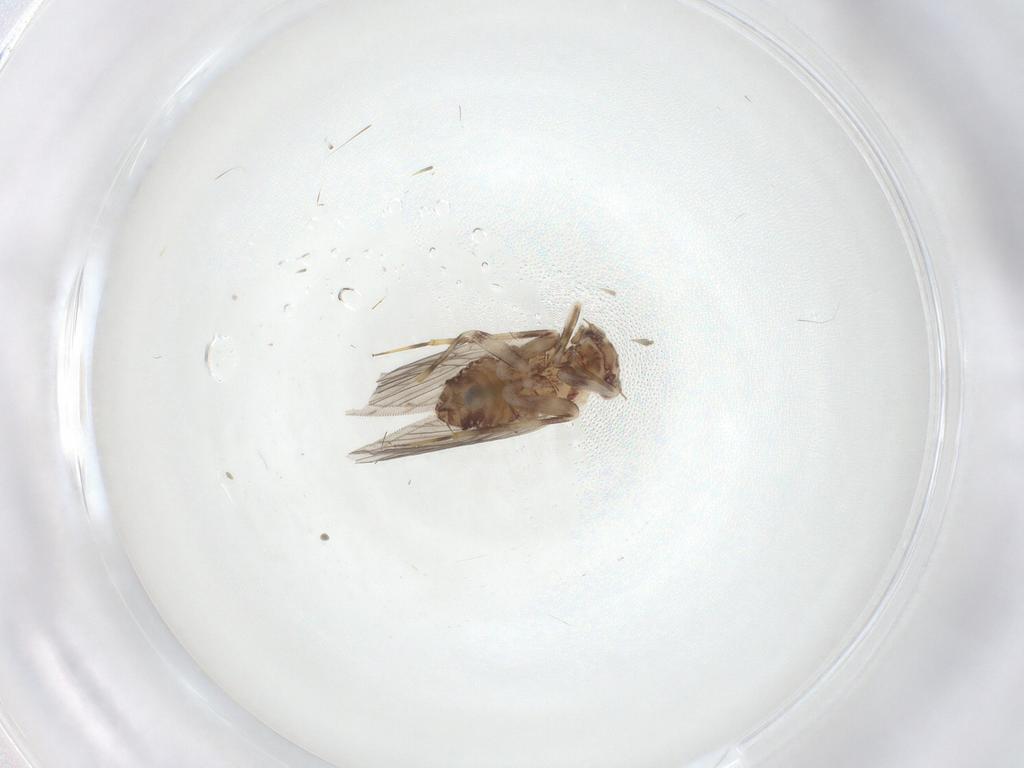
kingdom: Animalia
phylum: Arthropoda
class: Insecta
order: Psocodea
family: Lepidopsocidae
